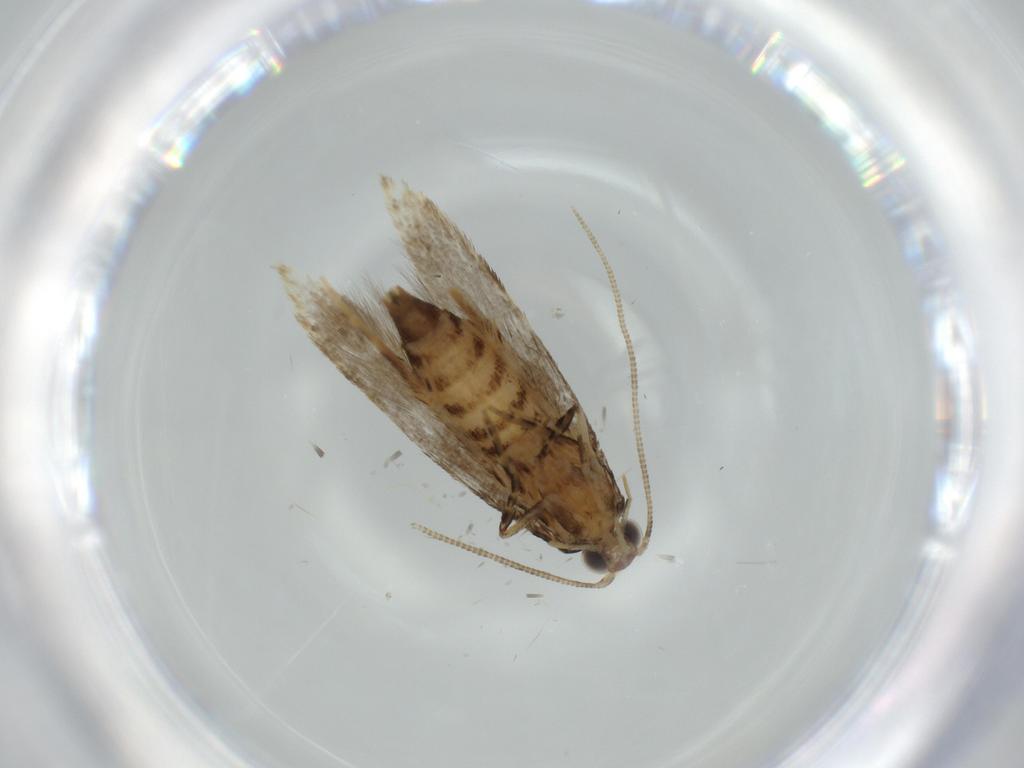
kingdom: Animalia
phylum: Arthropoda
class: Insecta
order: Lepidoptera
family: Tineidae
